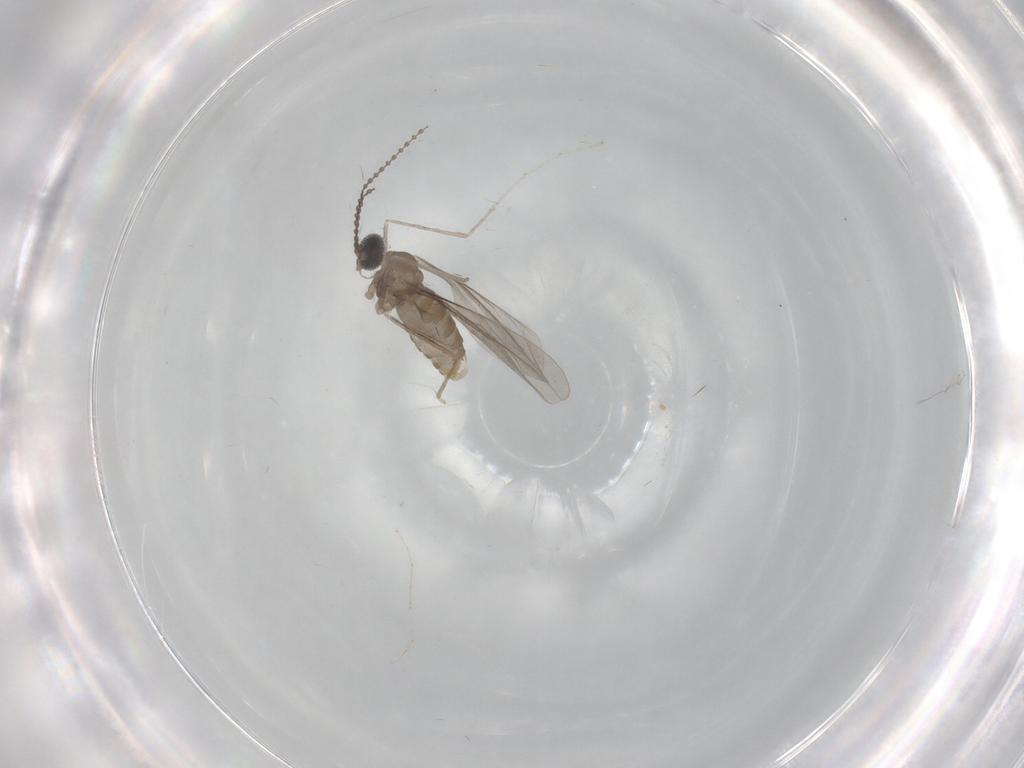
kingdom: Animalia
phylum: Arthropoda
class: Insecta
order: Diptera
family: Cecidomyiidae
